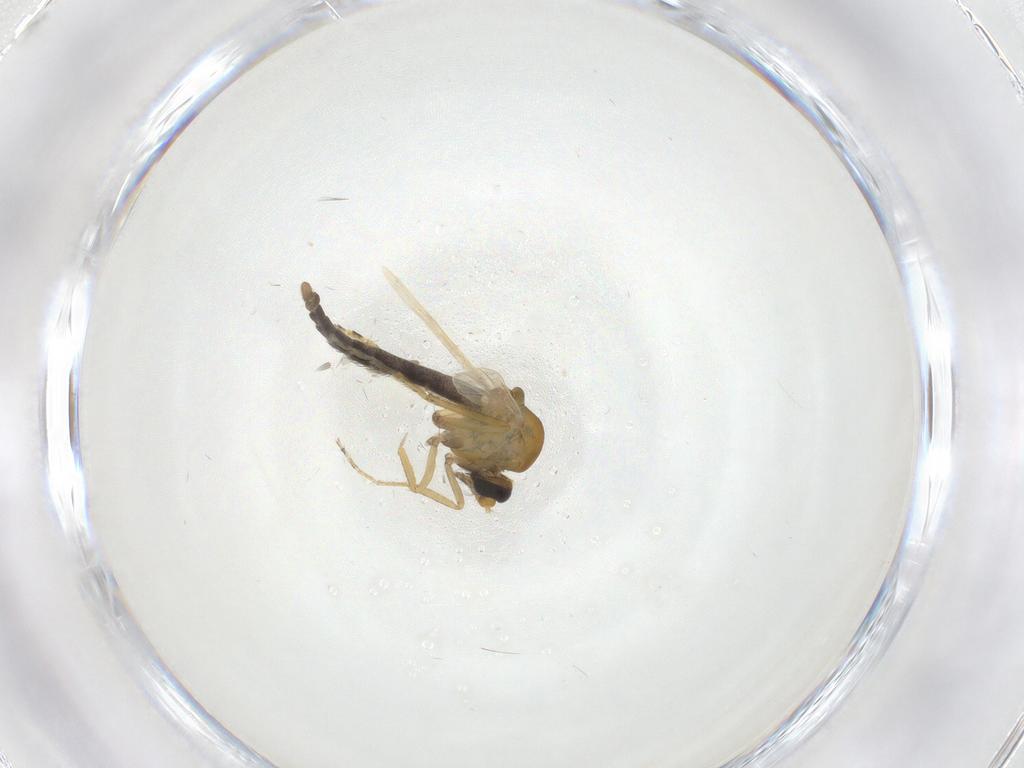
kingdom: Animalia
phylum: Arthropoda
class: Insecta
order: Diptera
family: Ceratopogonidae
